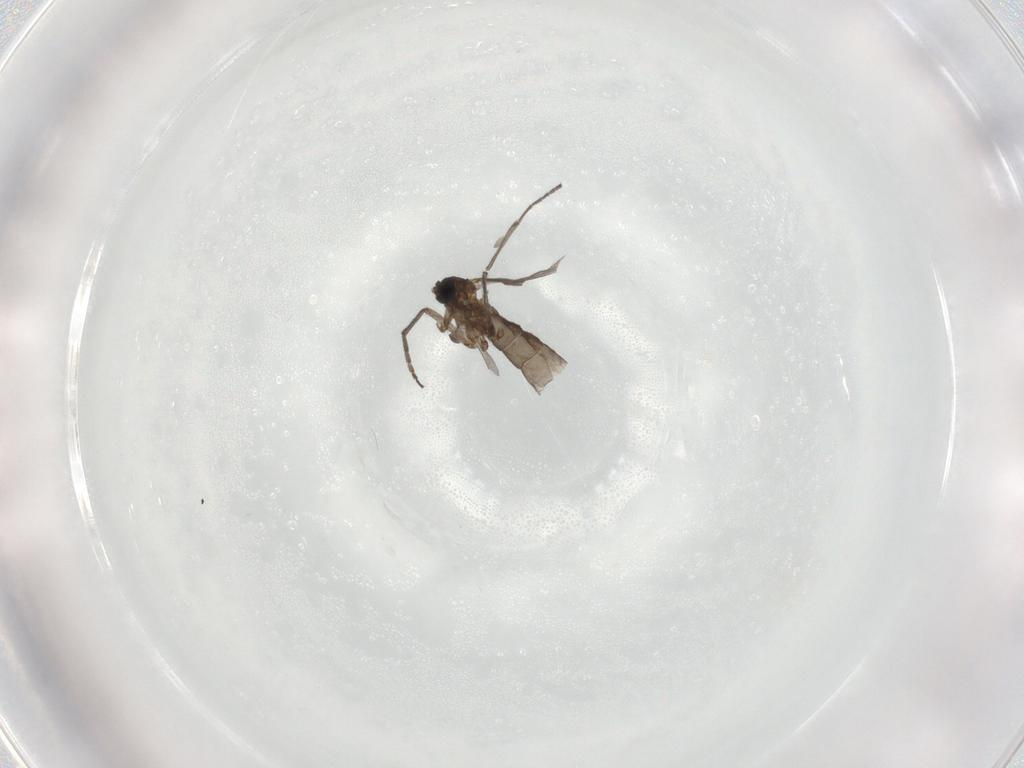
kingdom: Animalia
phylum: Arthropoda
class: Insecta
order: Diptera
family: Sciaridae
